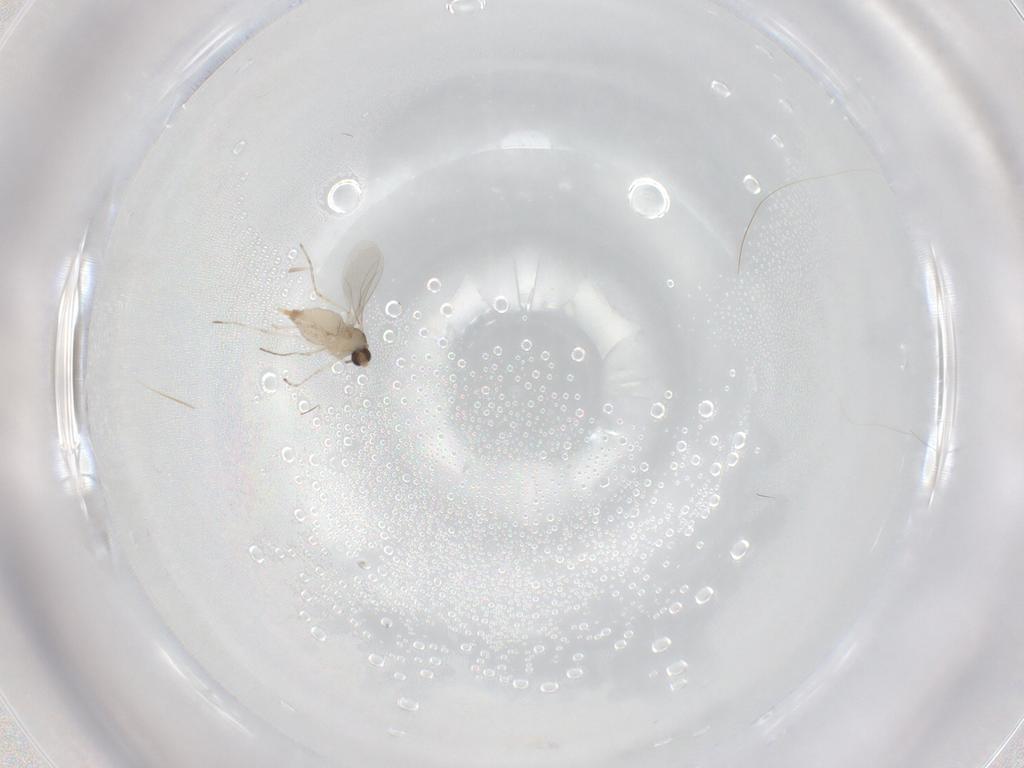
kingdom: Animalia
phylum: Arthropoda
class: Insecta
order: Diptera
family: Cecidomyiidae
